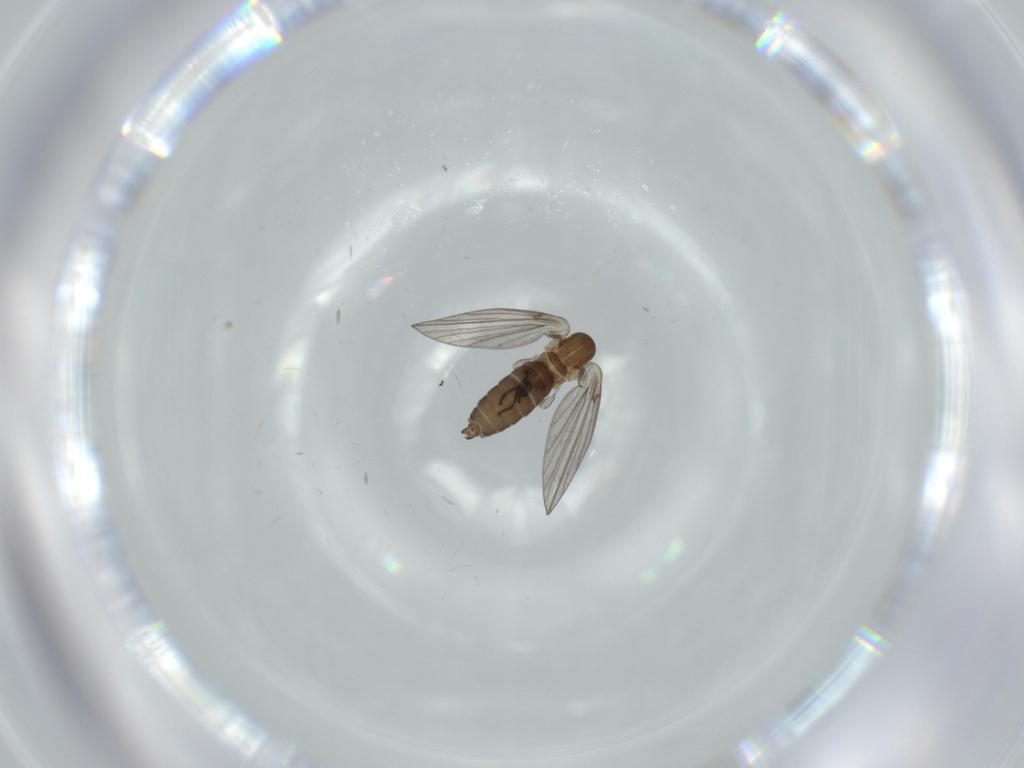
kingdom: Animalia
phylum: Arthropoda
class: Insecta
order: Diptera
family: Psychodidae
